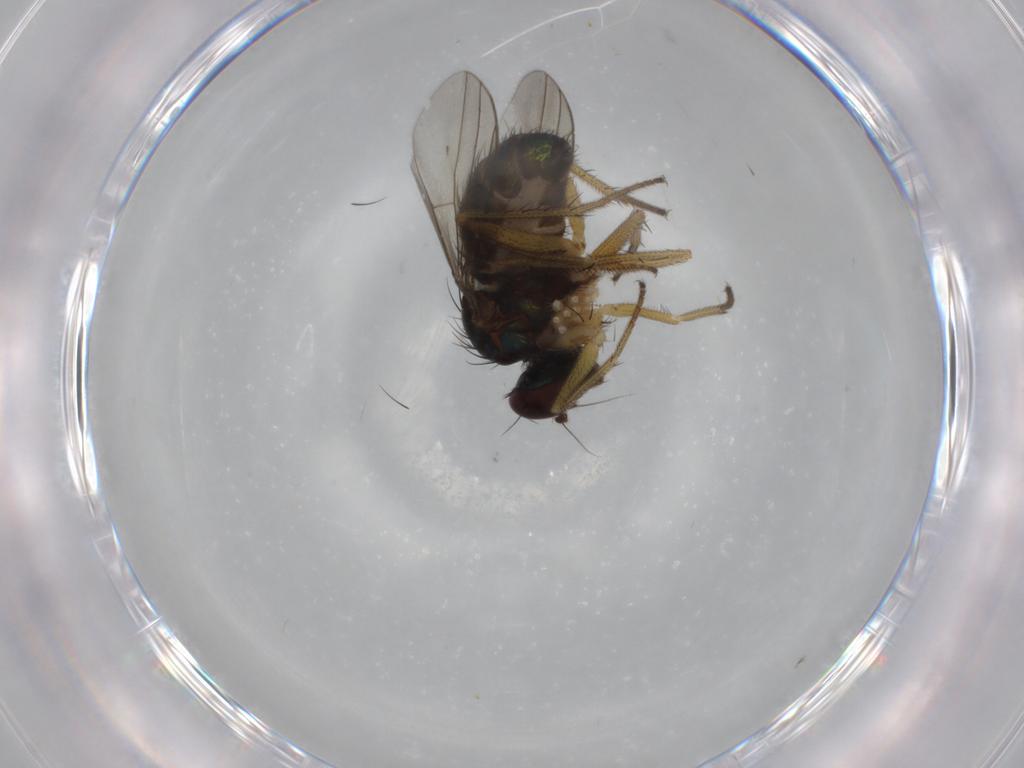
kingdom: Animalia
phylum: Arthropoda
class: Insecta
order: Diptera
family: Dolichopodidae
